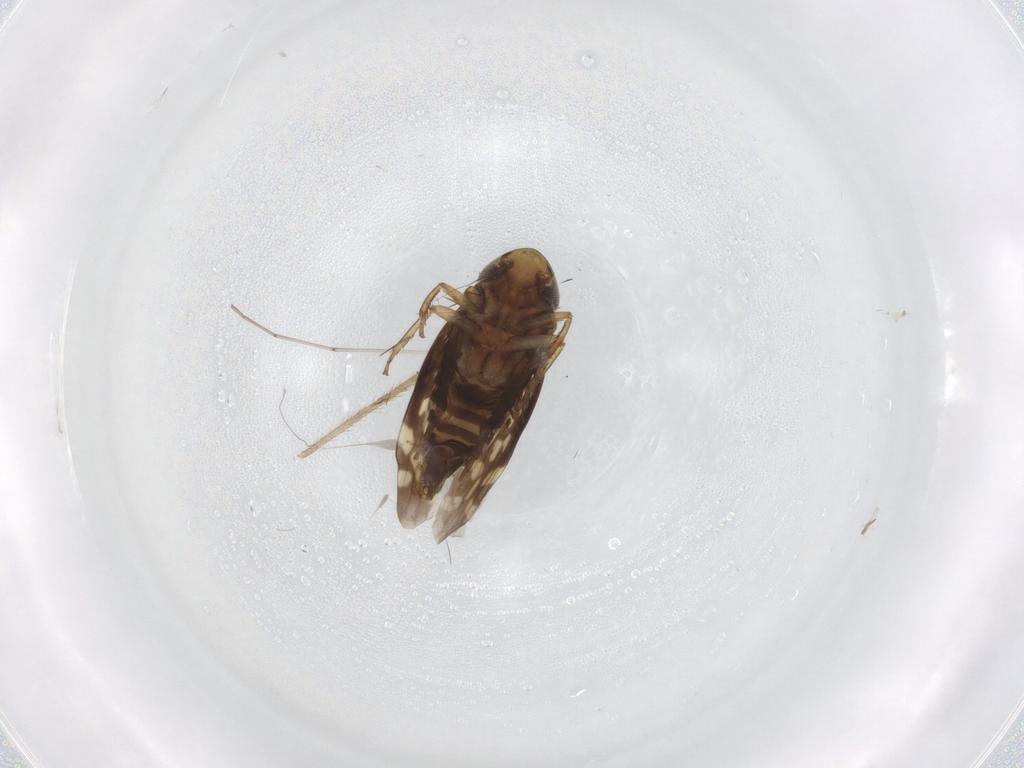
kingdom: Animalia
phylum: Arthropoda
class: Insecta
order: Hemiptera
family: Cicadellidae
